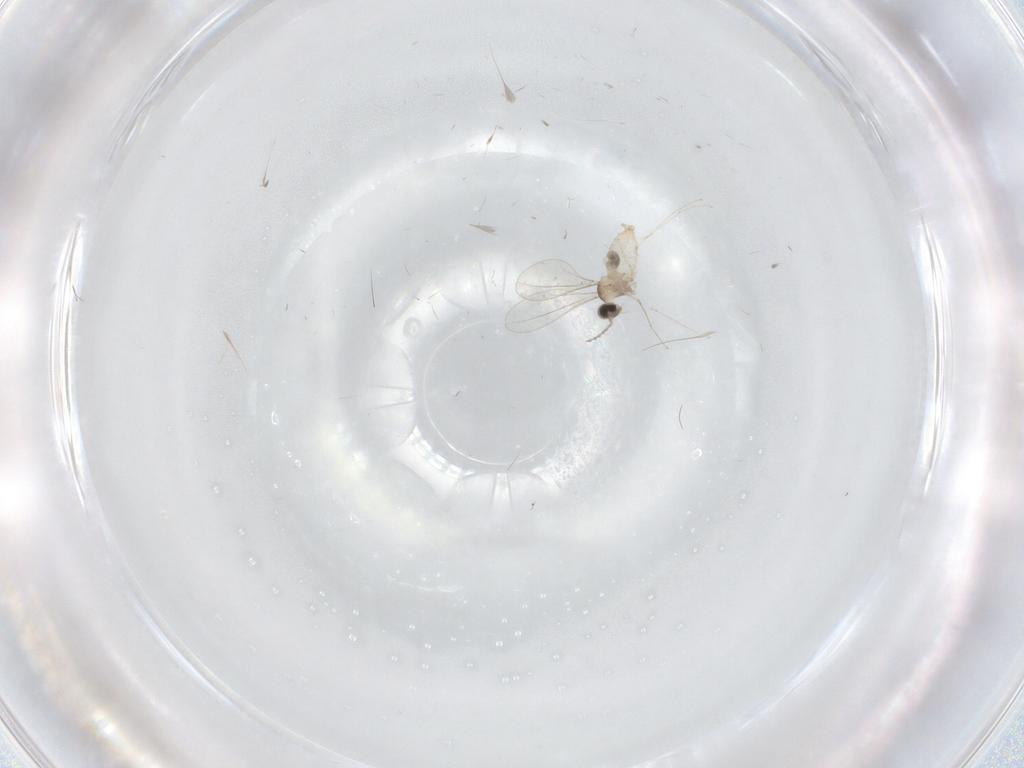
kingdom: Animalia
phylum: Arthropoda
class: Insecta
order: Diptera
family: Cecidomyiidae
